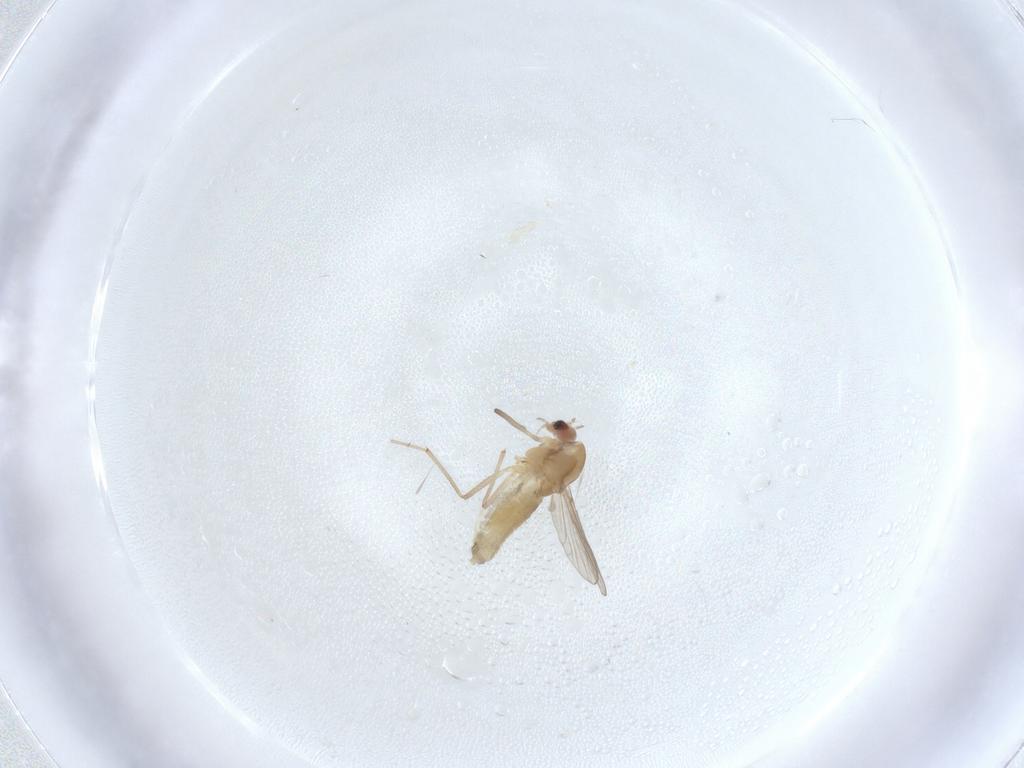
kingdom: Animalia
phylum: Arthropoda
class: Insecta
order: Diptera
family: Chironomidae
